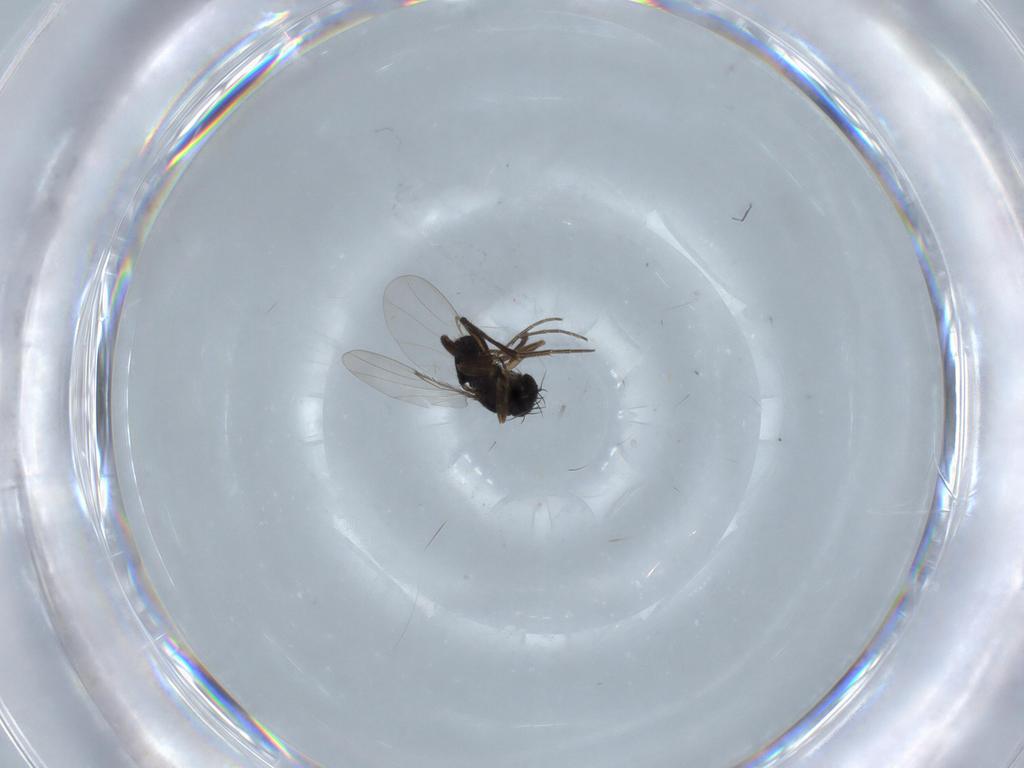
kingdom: Animalia
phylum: Arthropoda
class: Insecta
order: Diptera
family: Phoridae
